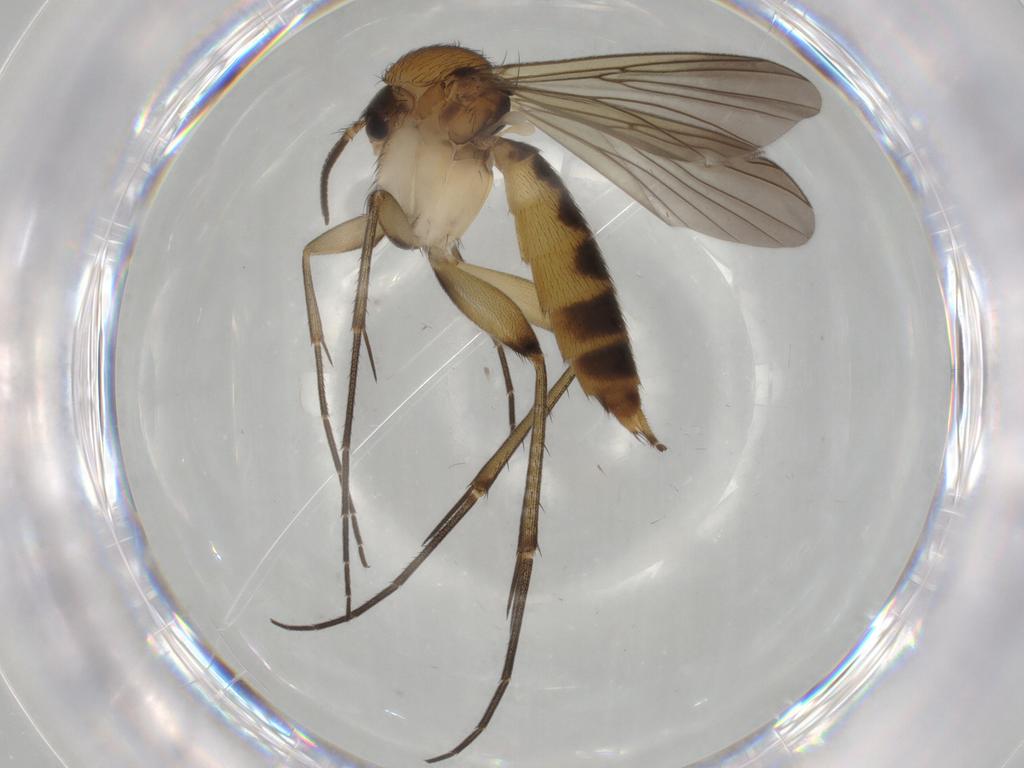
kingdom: Animalia
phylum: Arthropoda
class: Insecta
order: Diptera
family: Mycetophilidae
